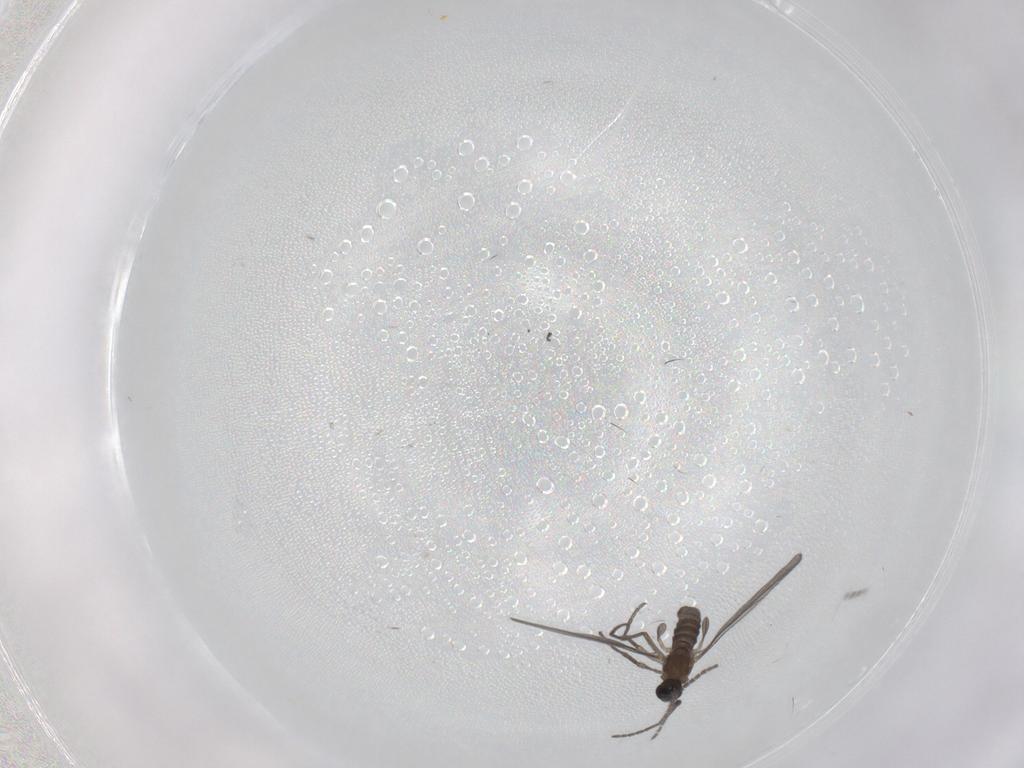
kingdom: Animalia
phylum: Arthropoda
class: Insecta
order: Diptera
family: Sciaridae
